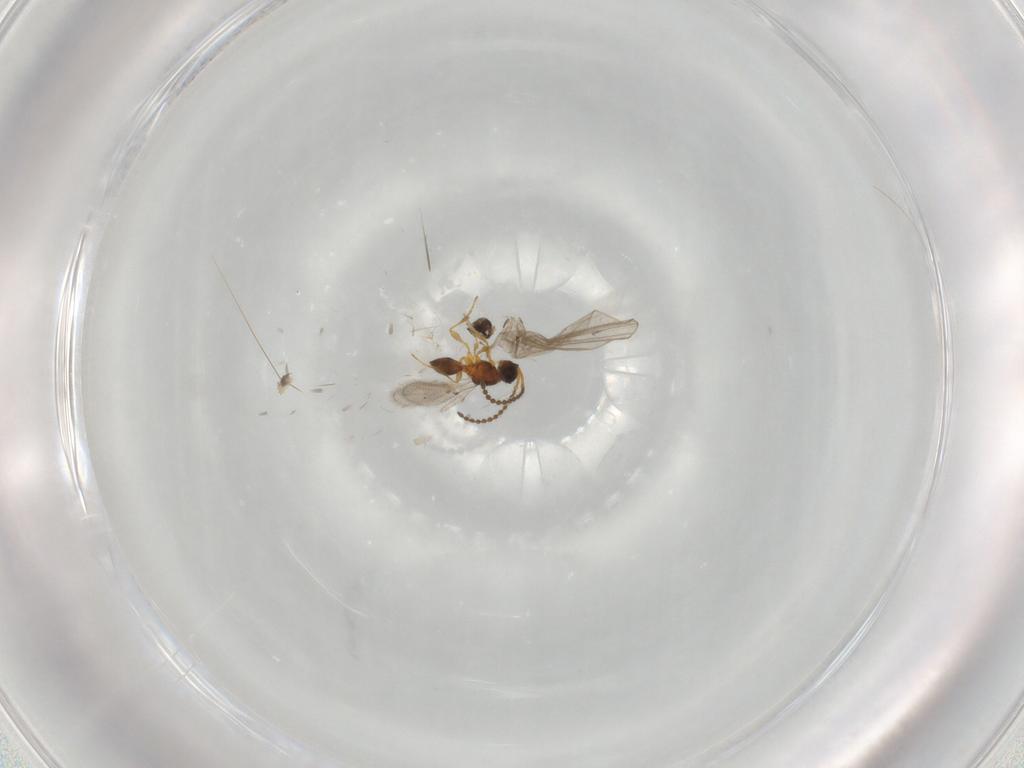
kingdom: Animalia
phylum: Arthropoda
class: Insecta
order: Hymenoptera
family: Diapriidae
